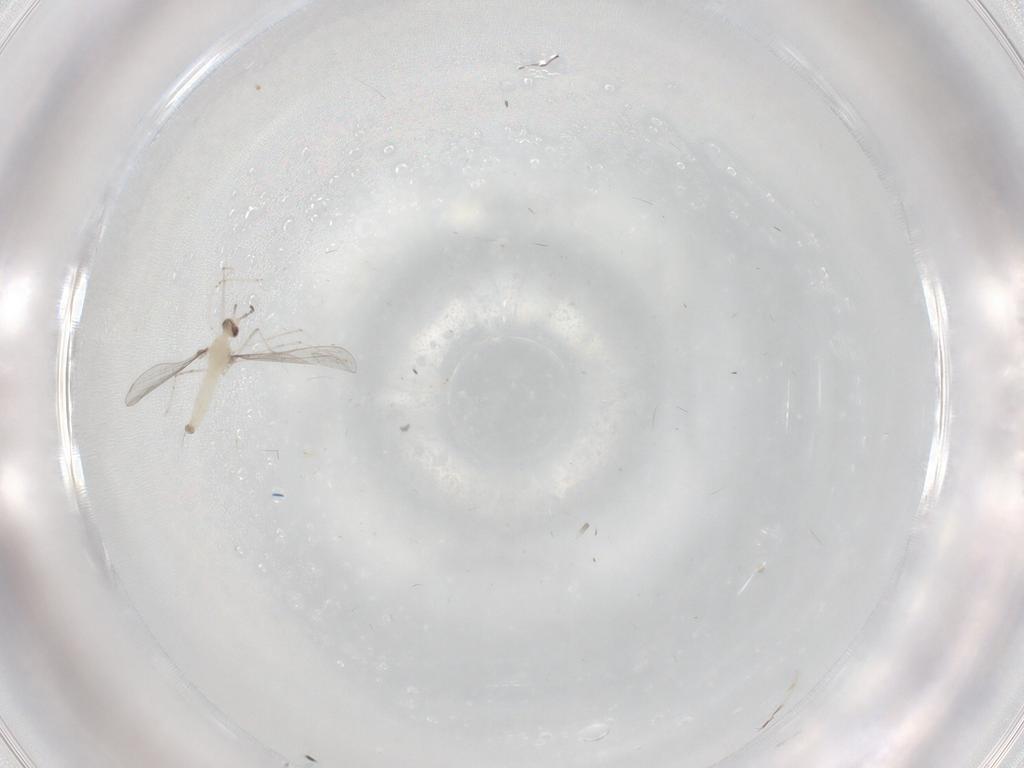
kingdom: Animalia
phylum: Arthropoda
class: Insecta
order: Diptera
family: Cecidomyiidae
